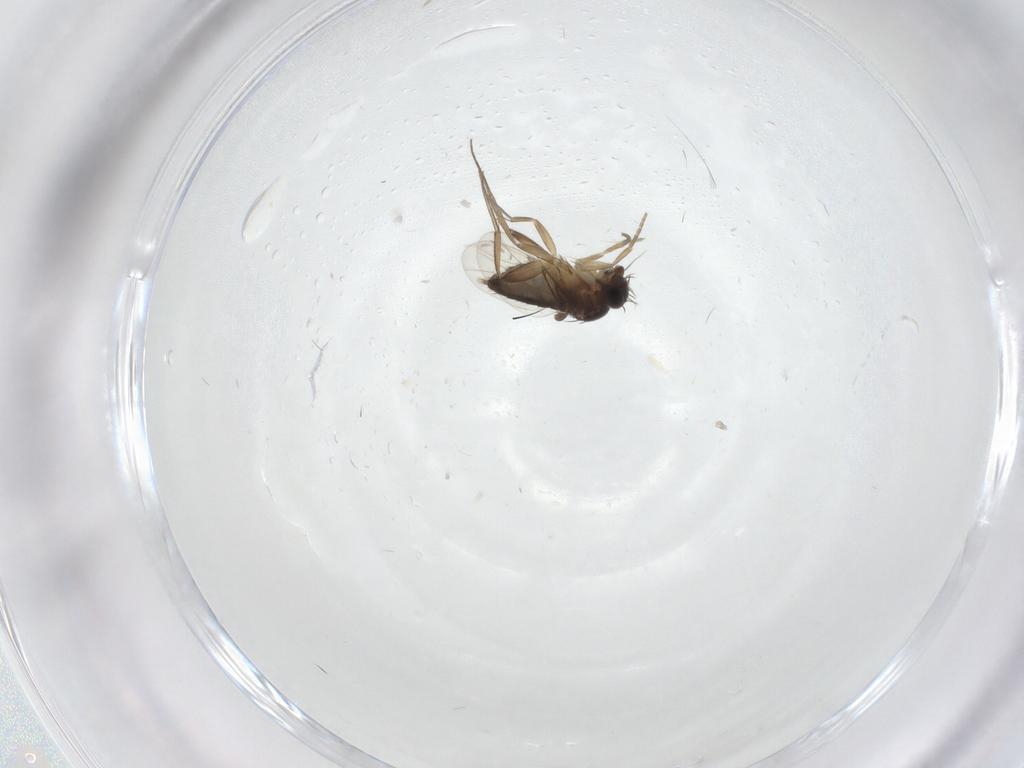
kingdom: Animalia
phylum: Arthropoda
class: Insecta
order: Diptera
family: Phoridae
